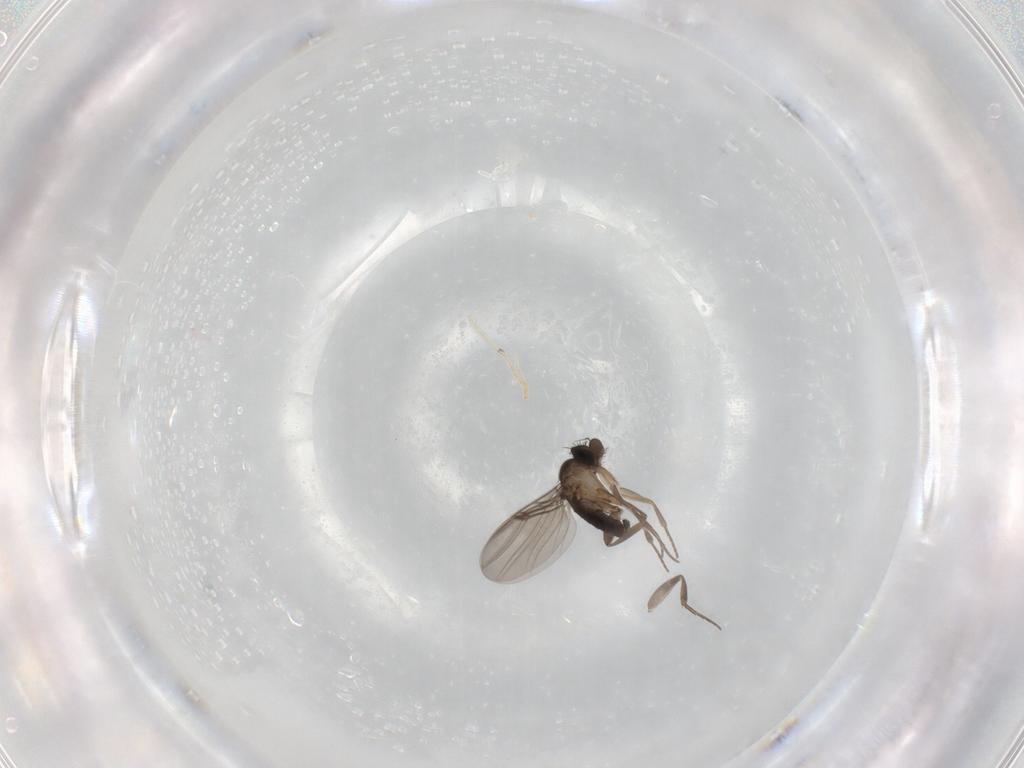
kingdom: Animalia
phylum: Arthropoda
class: Insecta
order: Diptera
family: Phoridae
